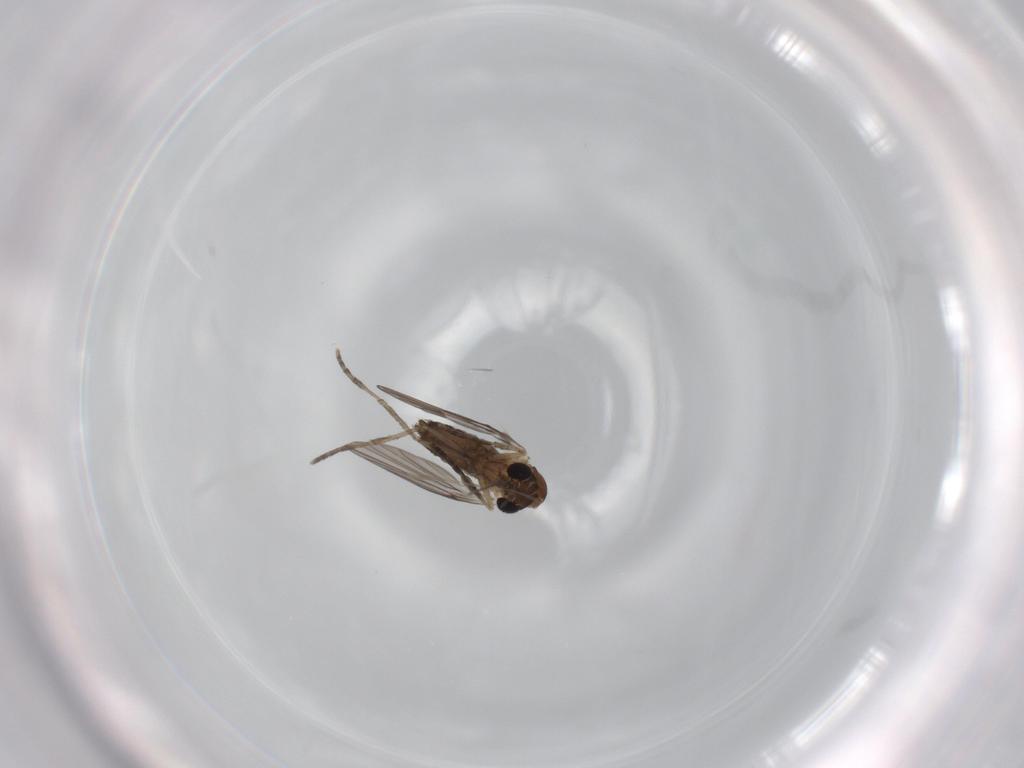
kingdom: Animalia
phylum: Arthropoda
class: Insecta
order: Diptera
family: Psychodidae
